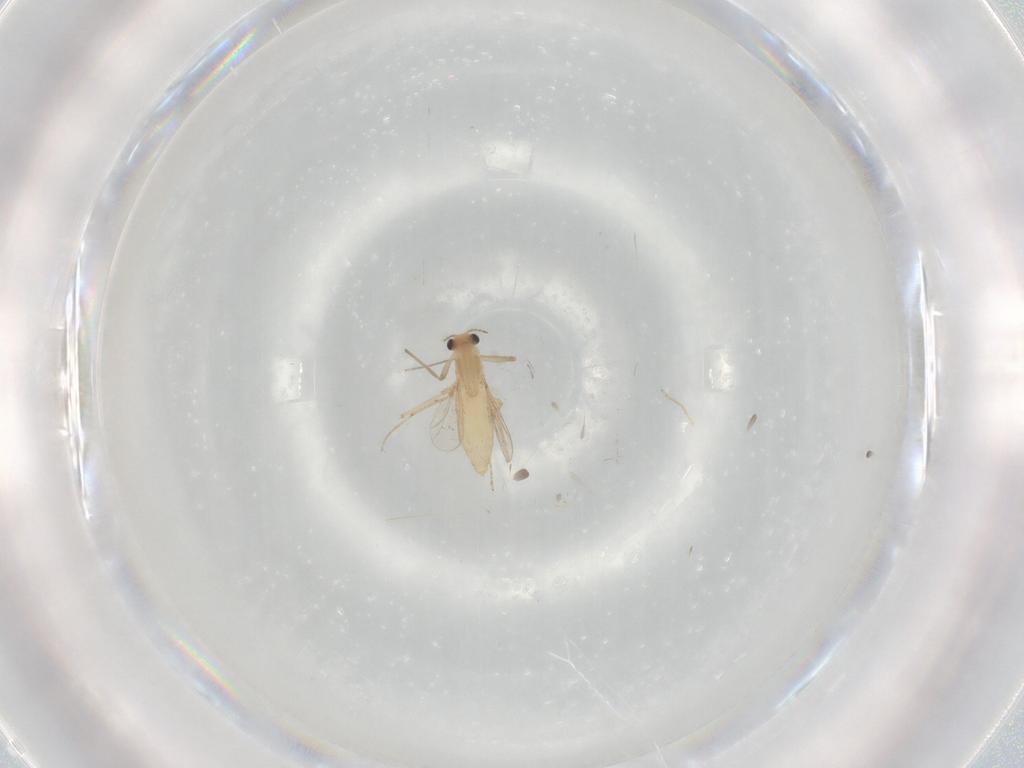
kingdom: Animalia
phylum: Arthropoda
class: Insecta
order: Diptera
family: Chironomidae
